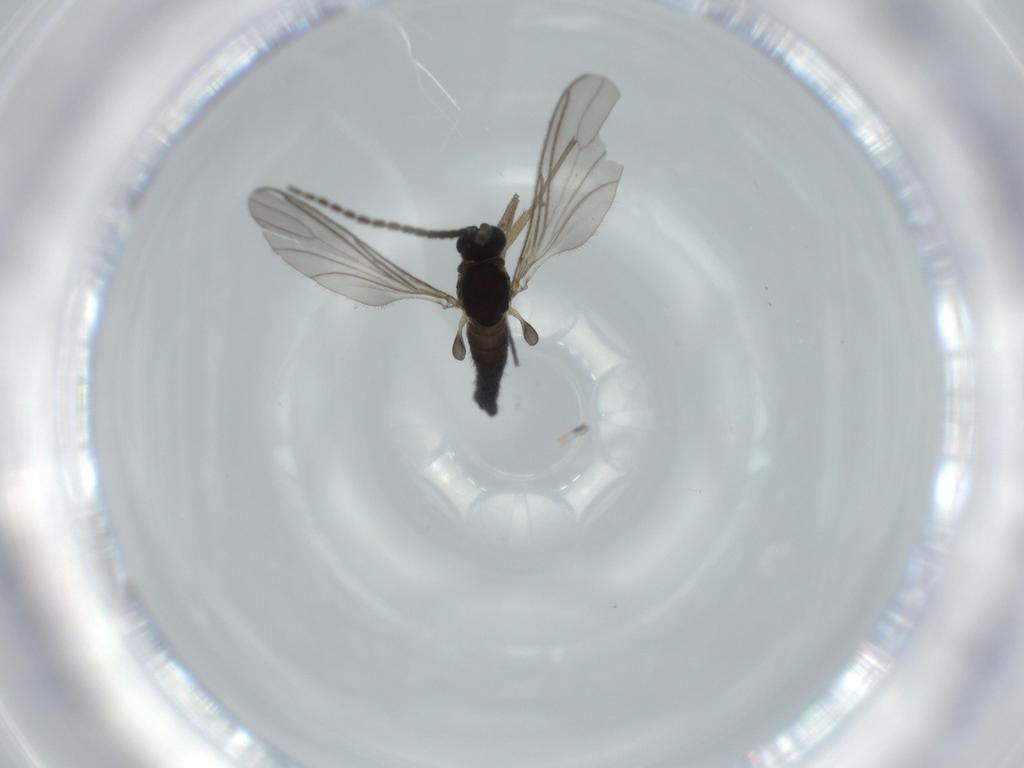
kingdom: Animalia
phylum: Arthropoda
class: Insecta
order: Diptera
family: Sciaridae
